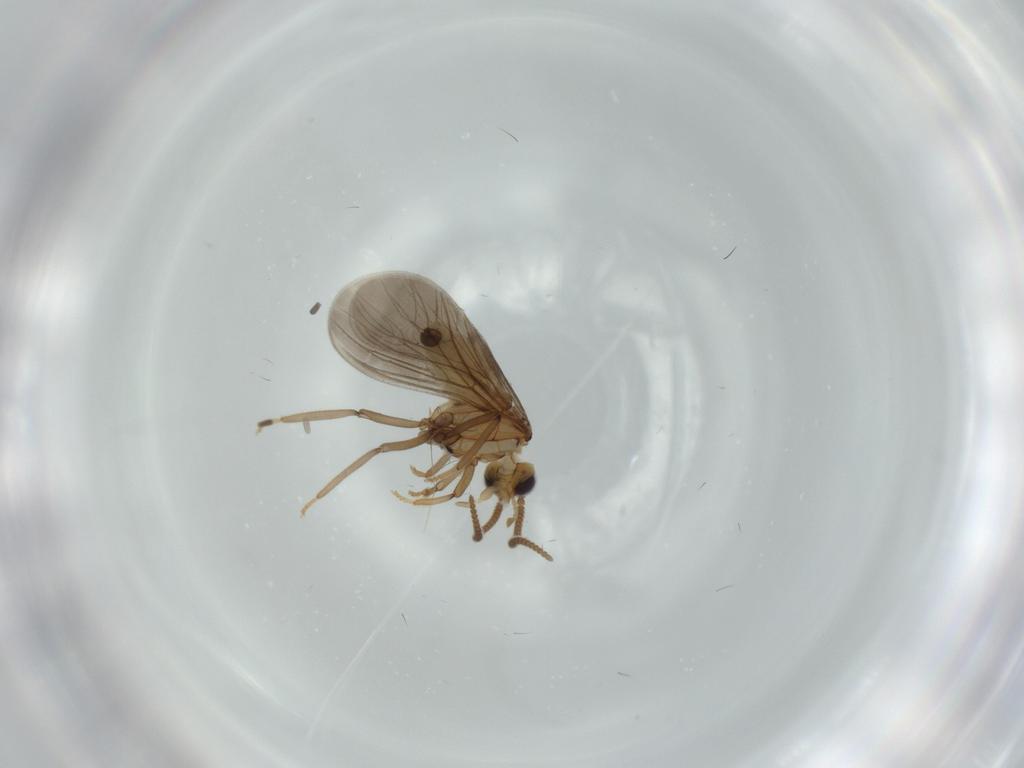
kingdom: Animalia
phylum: Arthropoda
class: Insecta
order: Neuroptera
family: Coniopterygidae
